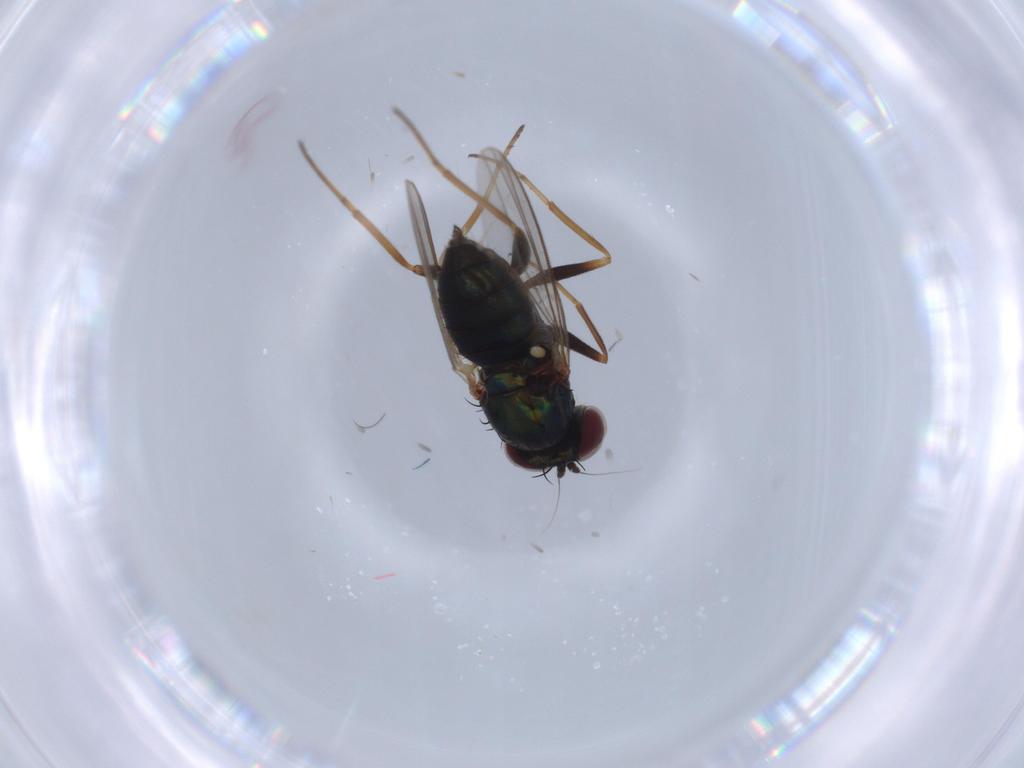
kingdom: Animalia
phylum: Arthropoda
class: Insecta
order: Diptera
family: Dolichopodidae
